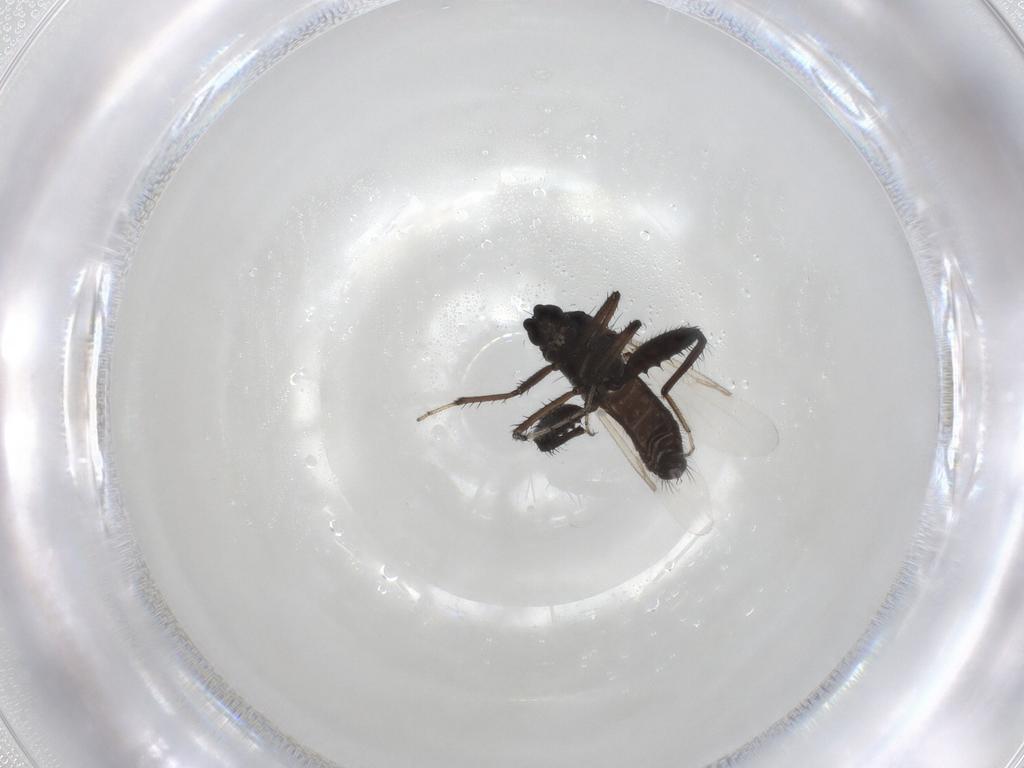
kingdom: Animalia
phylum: Arthropoda
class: Insecta
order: Diptera
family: Ceratopogonidae
